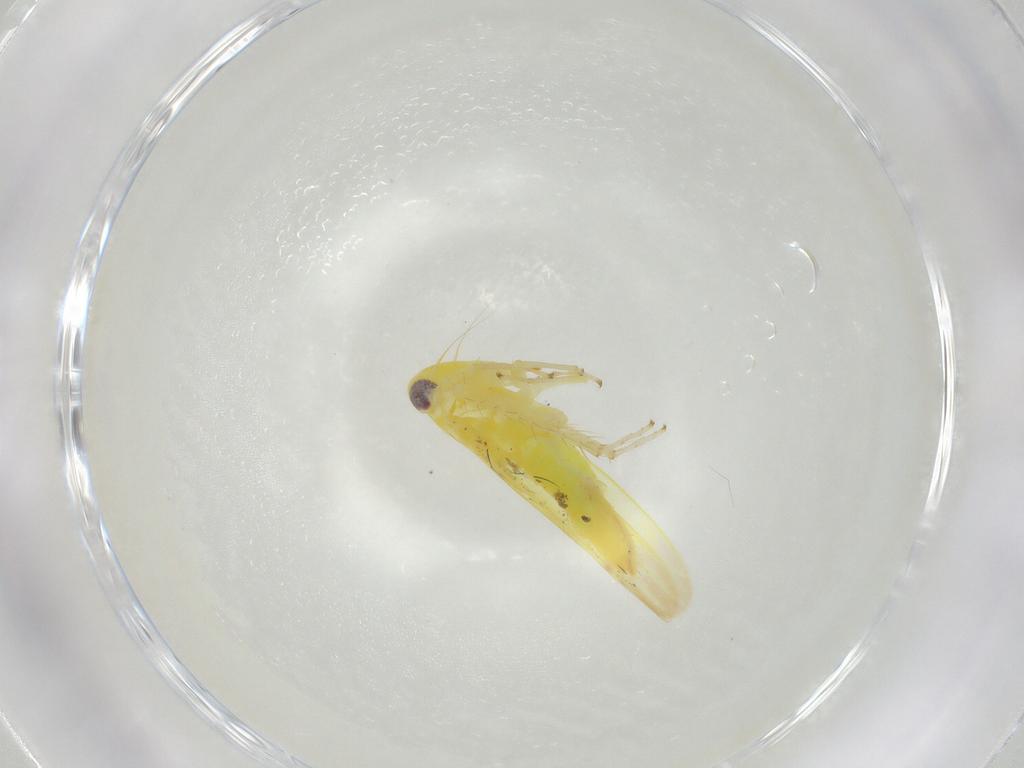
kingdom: Animalia
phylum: Arthropoda
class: Insecta
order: Hemiptera
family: Cicadellidae
